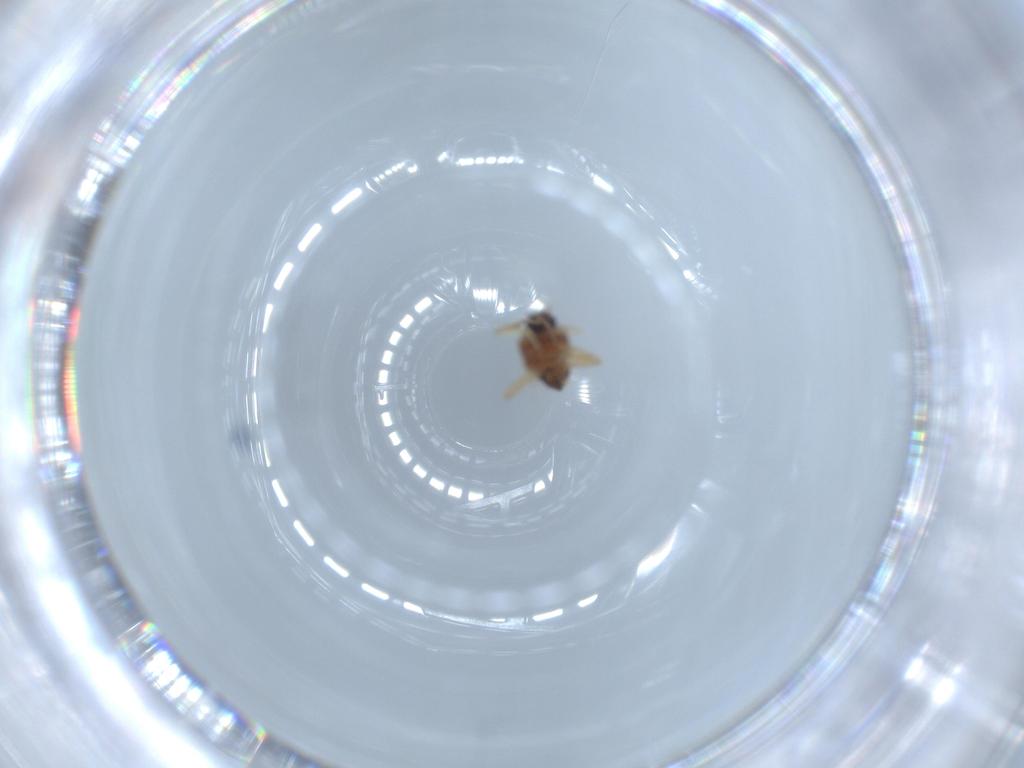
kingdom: Animalia
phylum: Arthropoda
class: Insecta
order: Diptera
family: Ceratopogonidae
